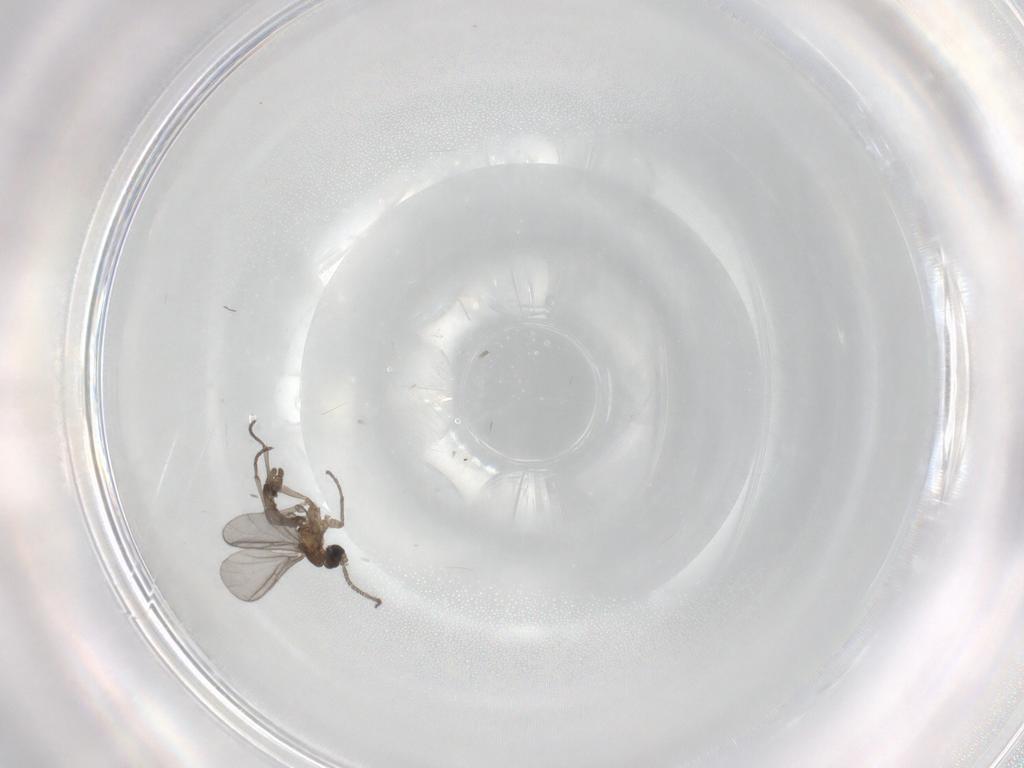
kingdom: Animalia
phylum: Arthropoda
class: Insecta
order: Diptera
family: Sciaridae
